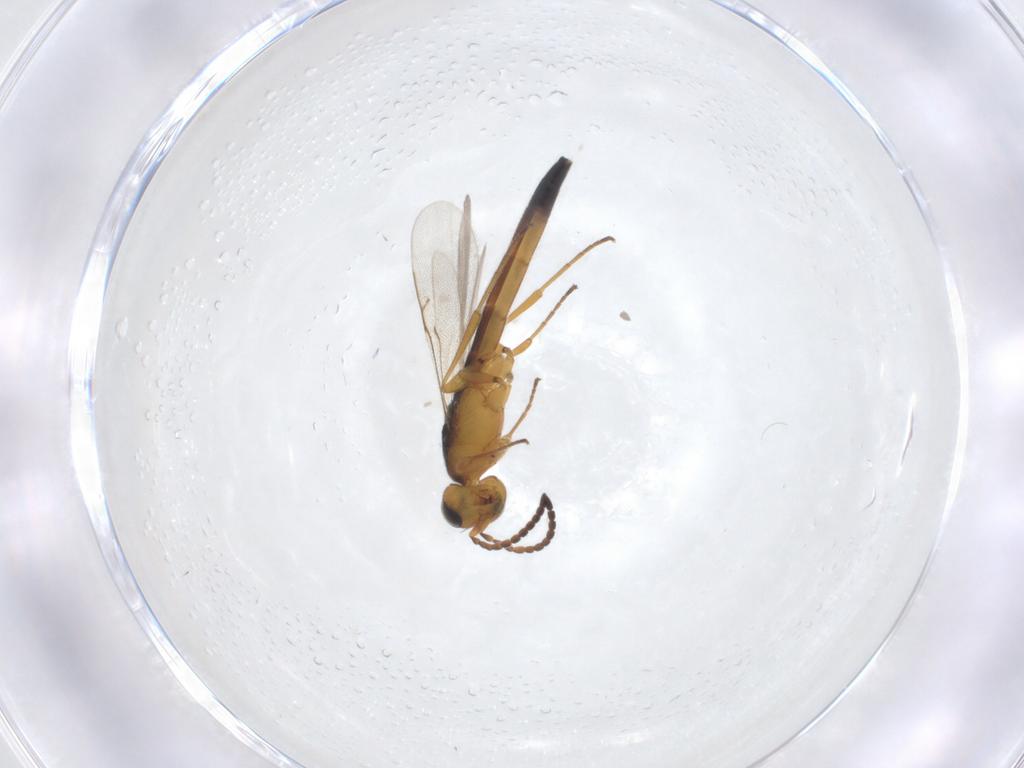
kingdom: Animalia
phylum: Arthropoda
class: Insecta
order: Hymenoptera
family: Scelionidae
